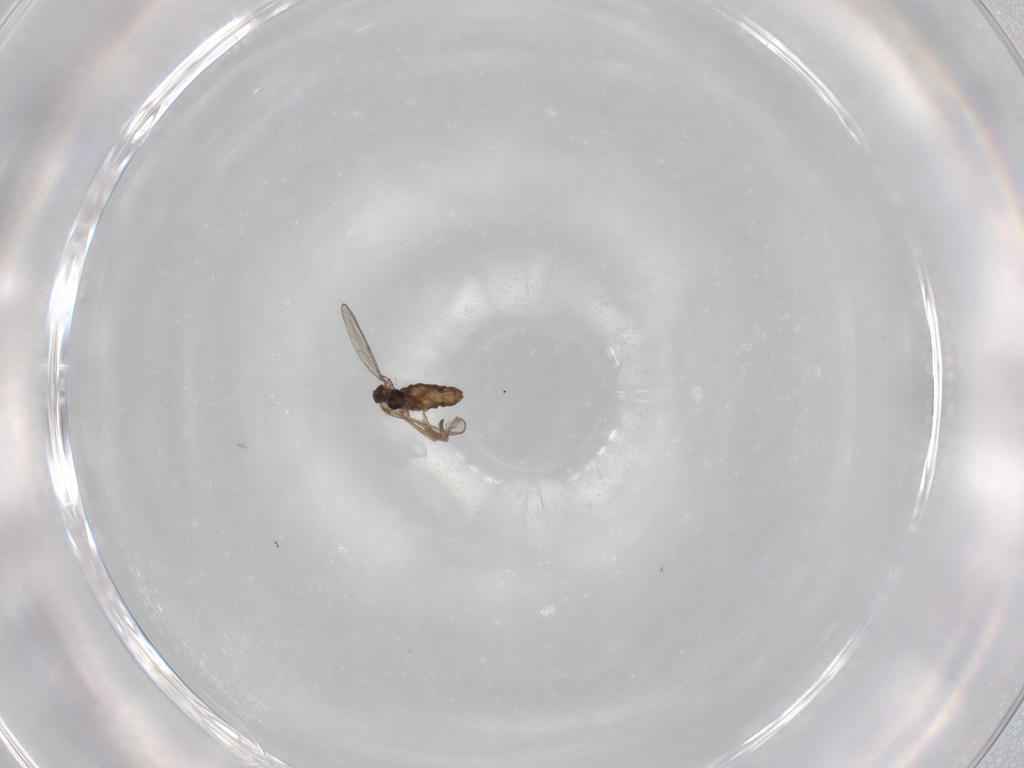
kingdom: Animalia
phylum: Arthropoda
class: Insecta
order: Diptera
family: Chironomidae
